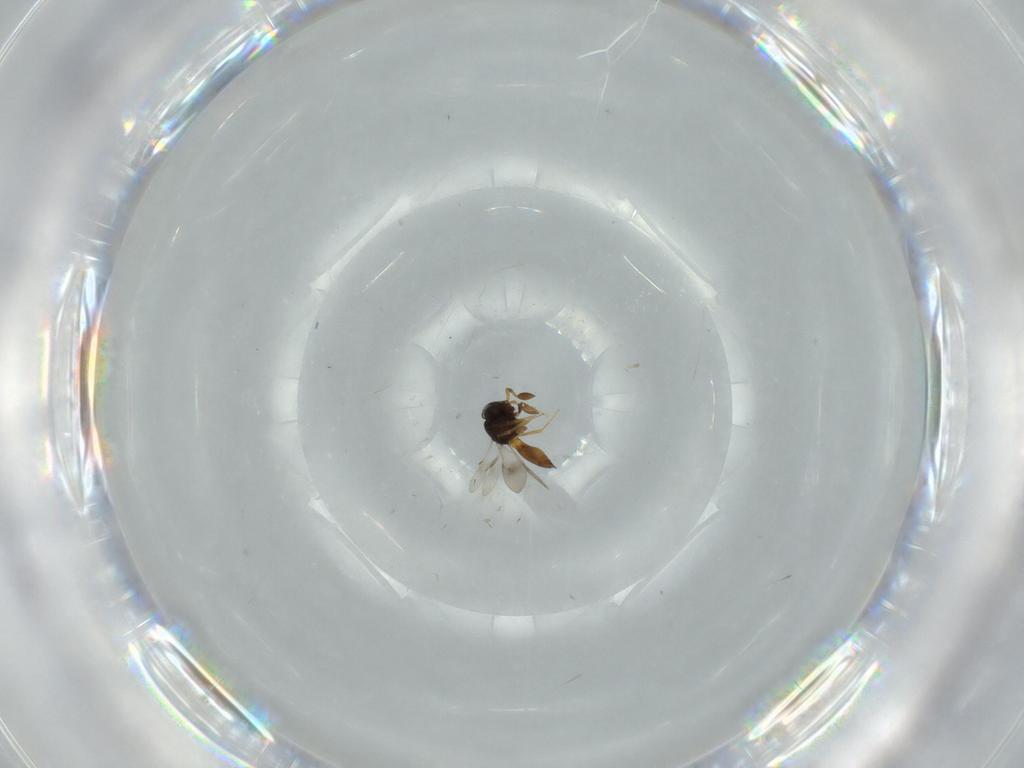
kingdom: Animalia
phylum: Arthropoda
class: Insecta
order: Hymenoptera
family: Scelionidae
